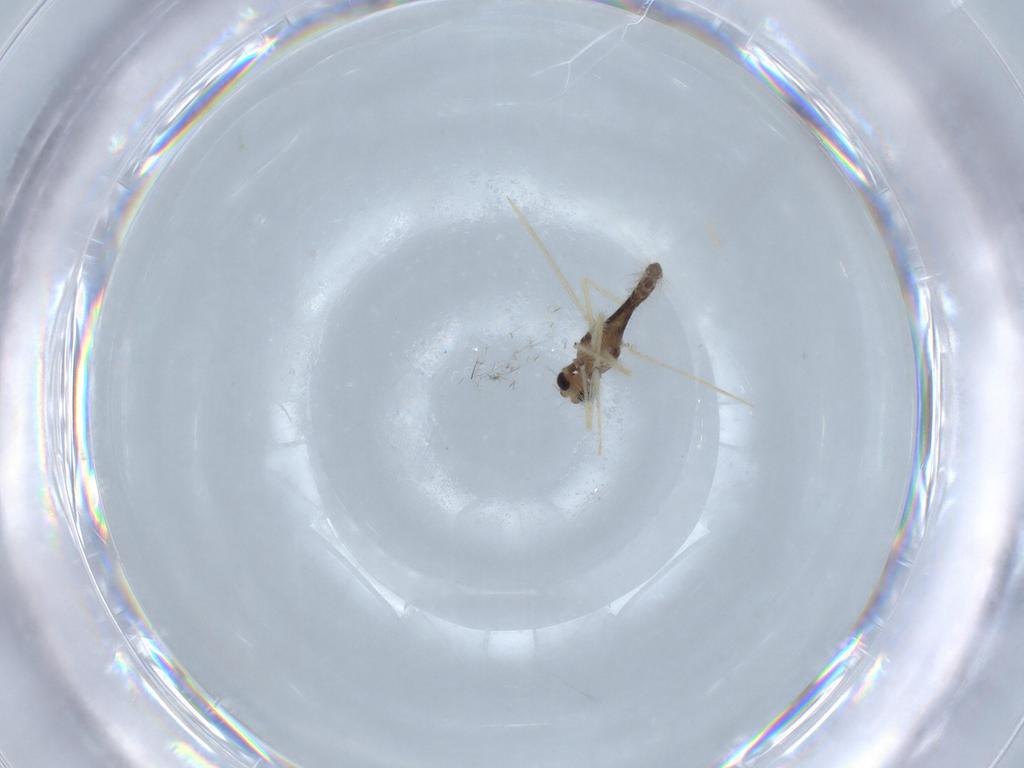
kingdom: Animalia
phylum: Arthropoda
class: Insecta
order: Diptera
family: Chironomidae
